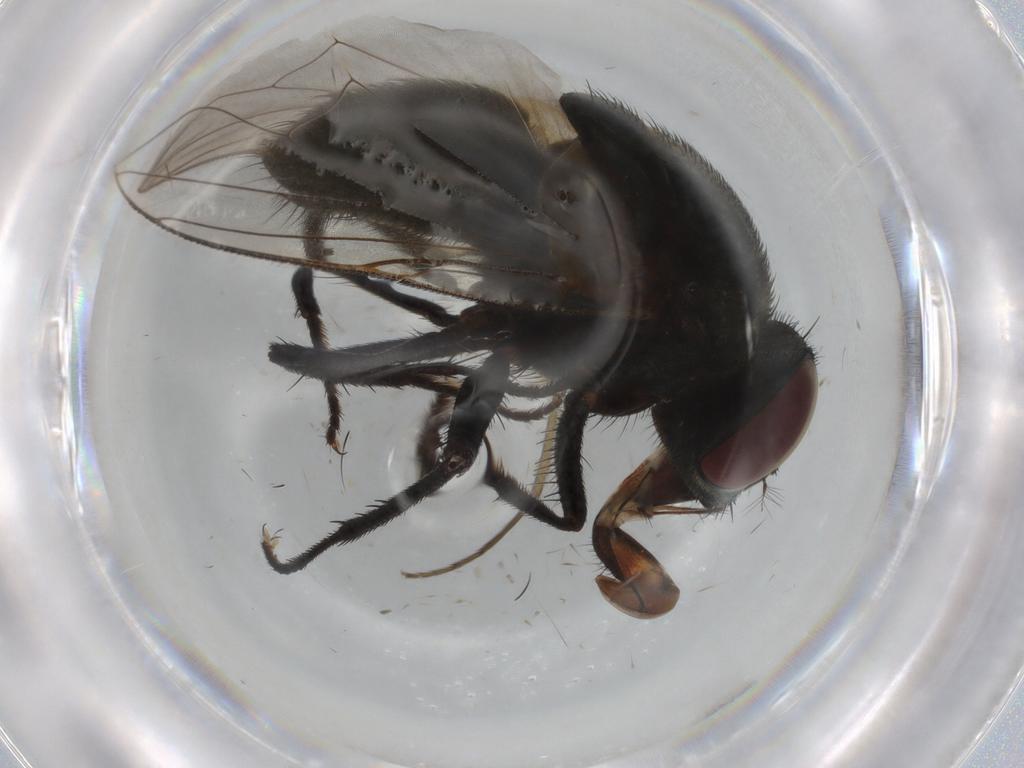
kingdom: Animalia
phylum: Arthropoda
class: Insecta
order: Diptera
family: Muscidae
